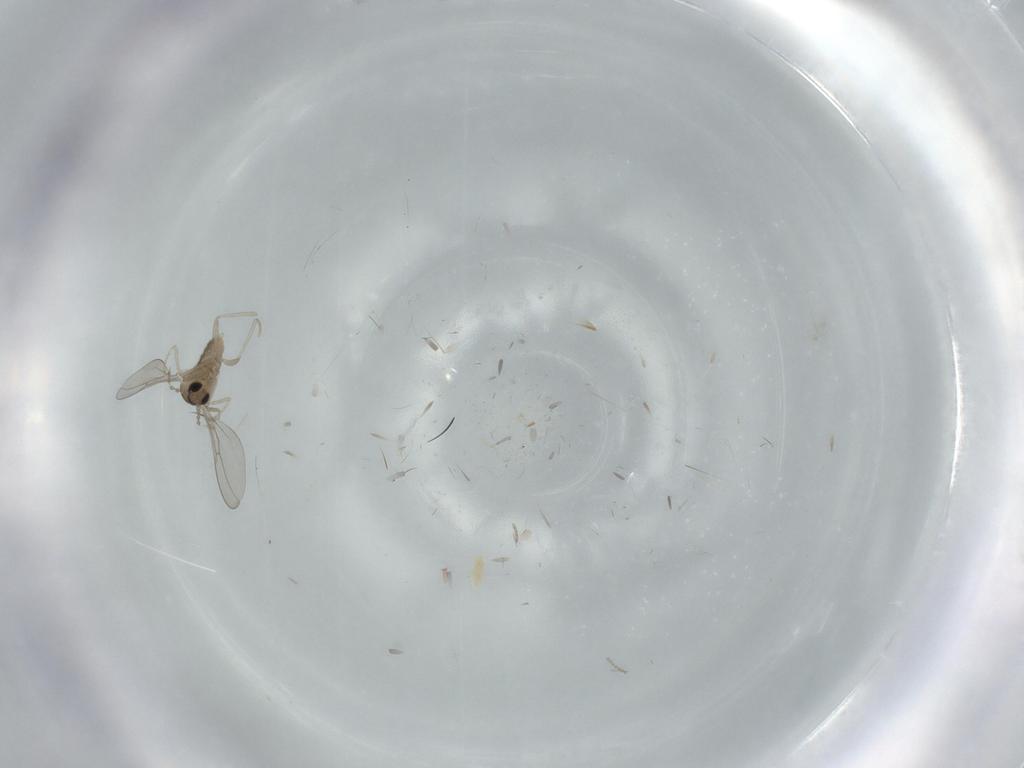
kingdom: Animalia
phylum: Arthropoda
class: Insecta
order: Diptera
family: Cecidomyiidae
